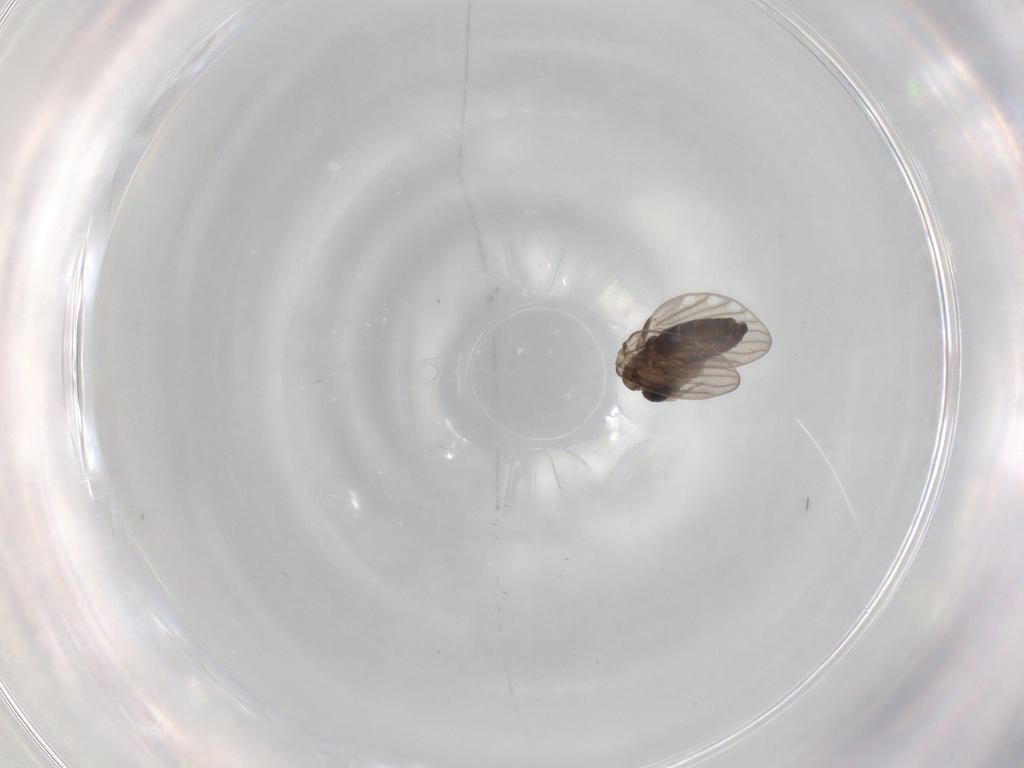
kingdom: Animalia
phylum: Arthropoda
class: Insecta
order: Diptera
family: Psychodidae
